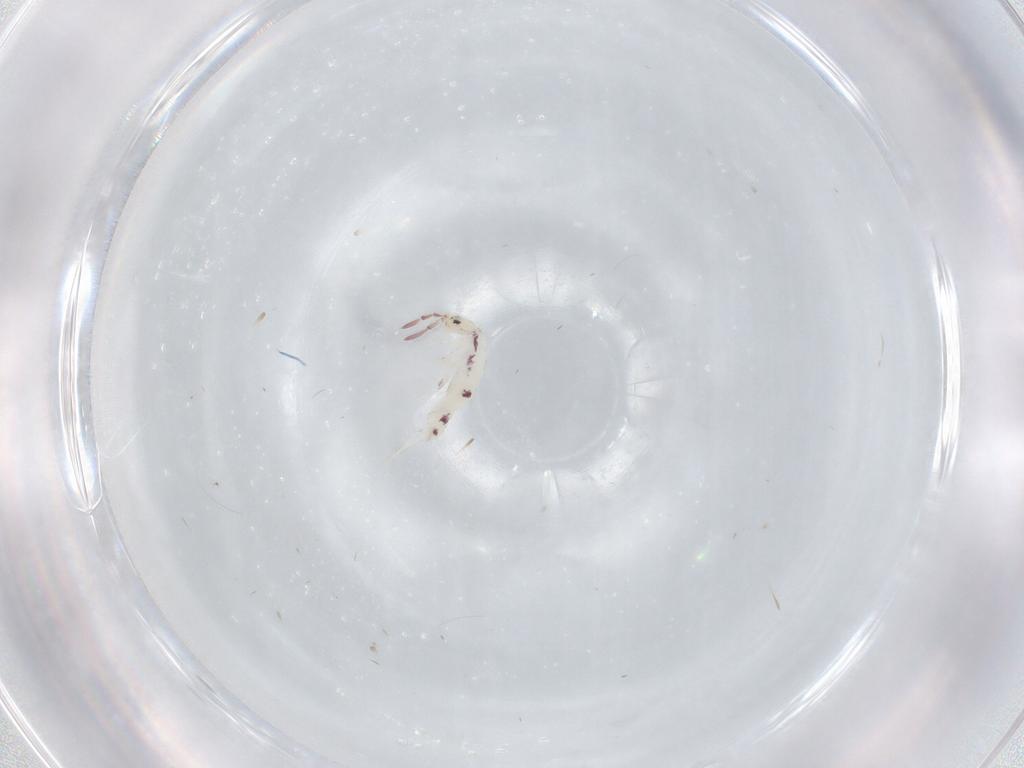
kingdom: Animalia
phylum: Arthropoda
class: Collembola
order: Entomobryomorpha
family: Entomobryidae
